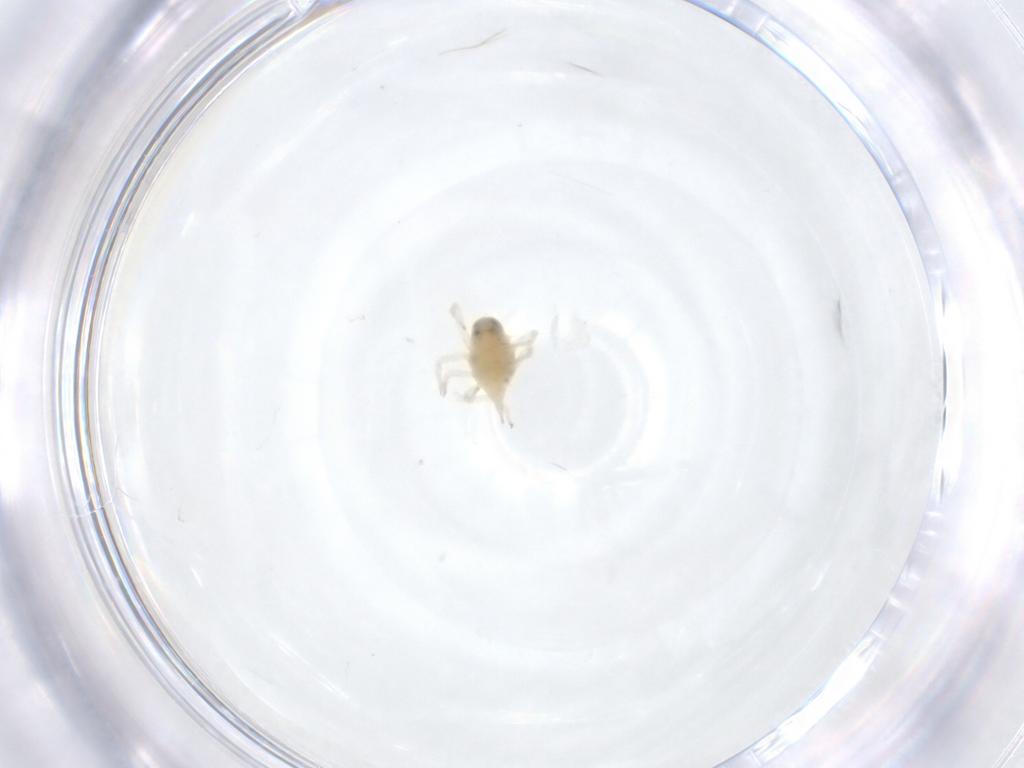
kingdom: Animalia
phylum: Arthropoda
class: Arachnida
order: Trombidiformes
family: Bdellidae
